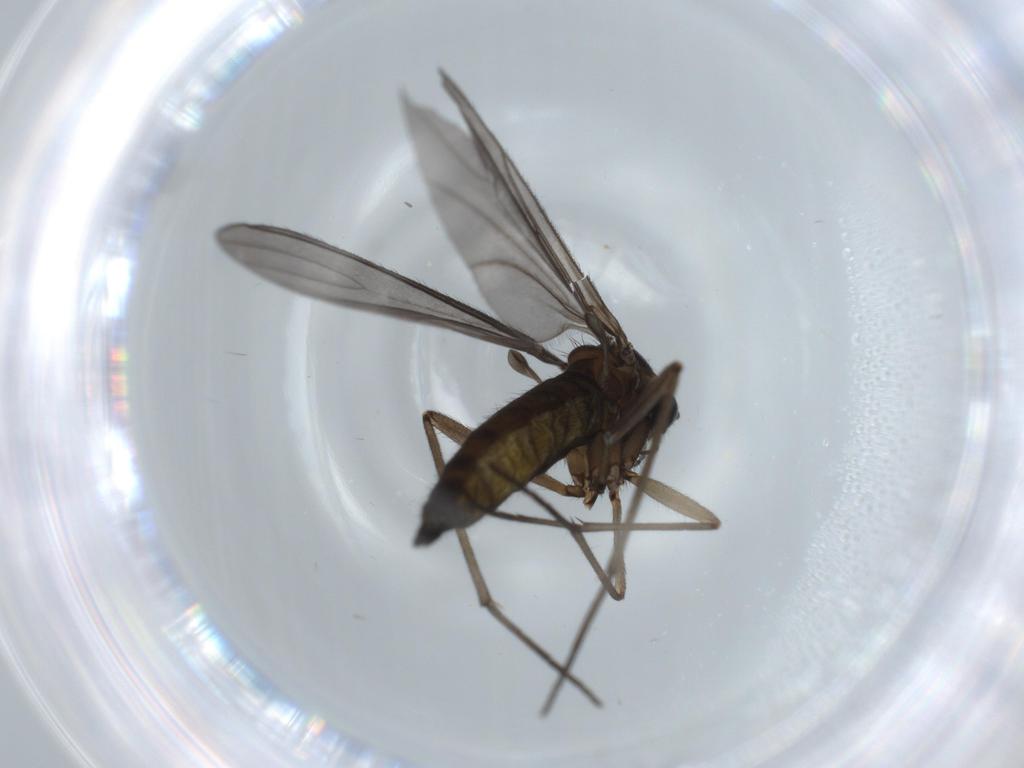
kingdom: Animalia
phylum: Arthropoda
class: Insecta
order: Diptera
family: Sciaridae
